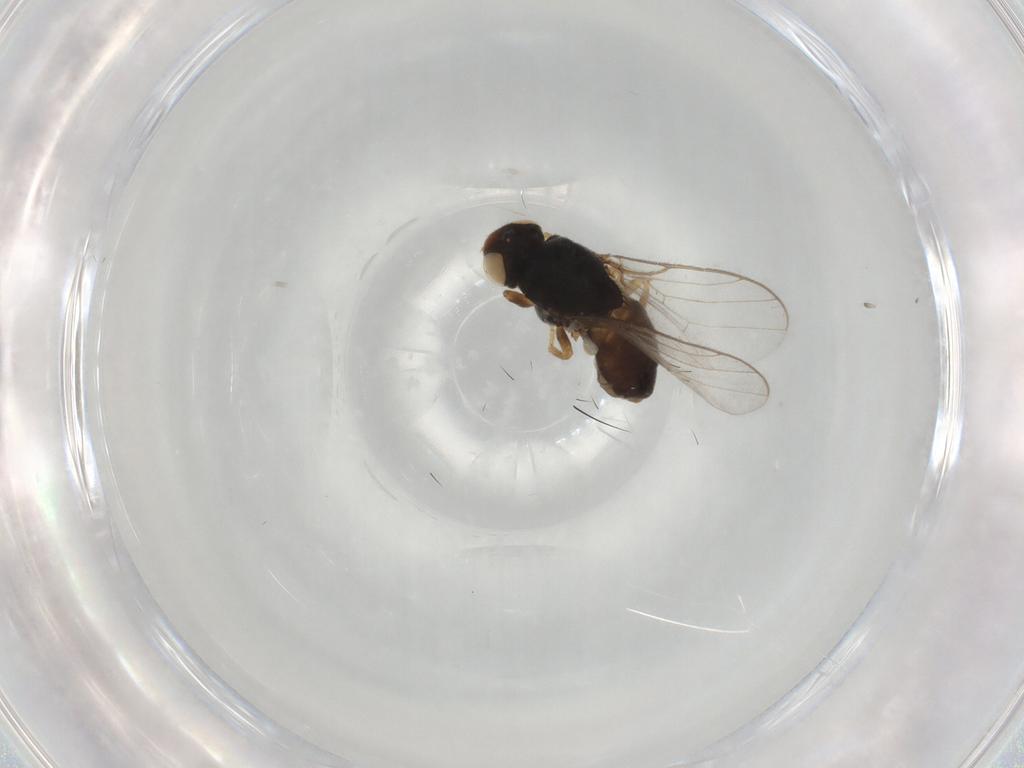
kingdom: Animalia
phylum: Arthropoda
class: Insecta
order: Diptera
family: Chloropidae
